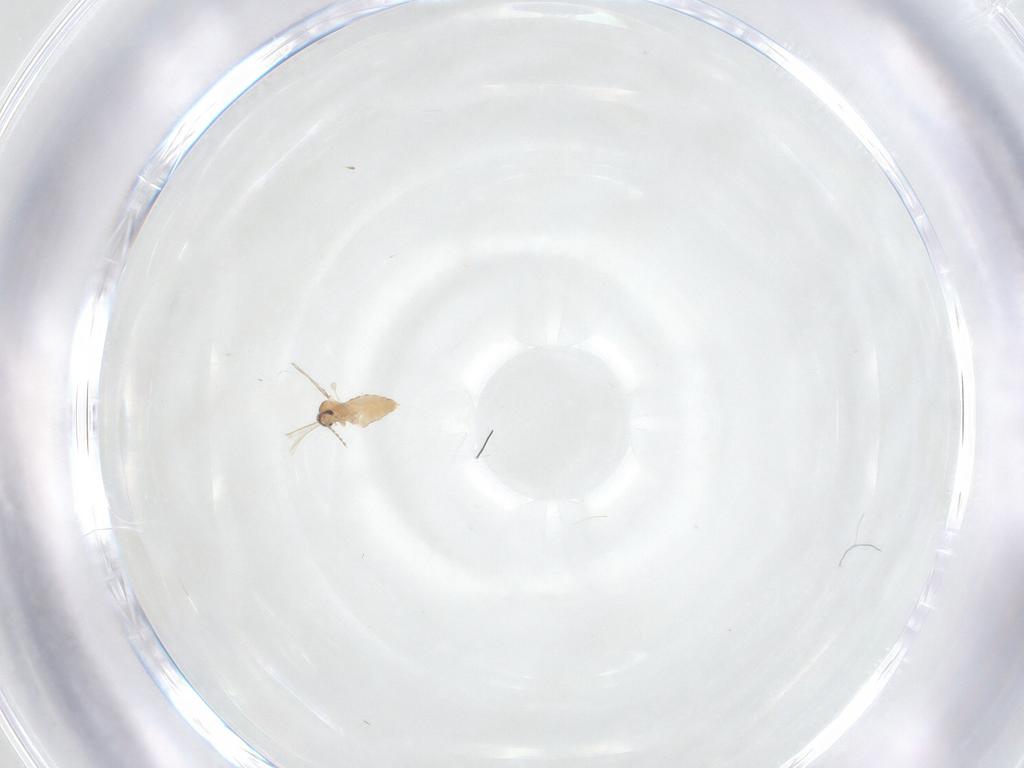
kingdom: Animalia
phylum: Arthropoda
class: Insecta
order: Diptera
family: Cecidomyiidae
